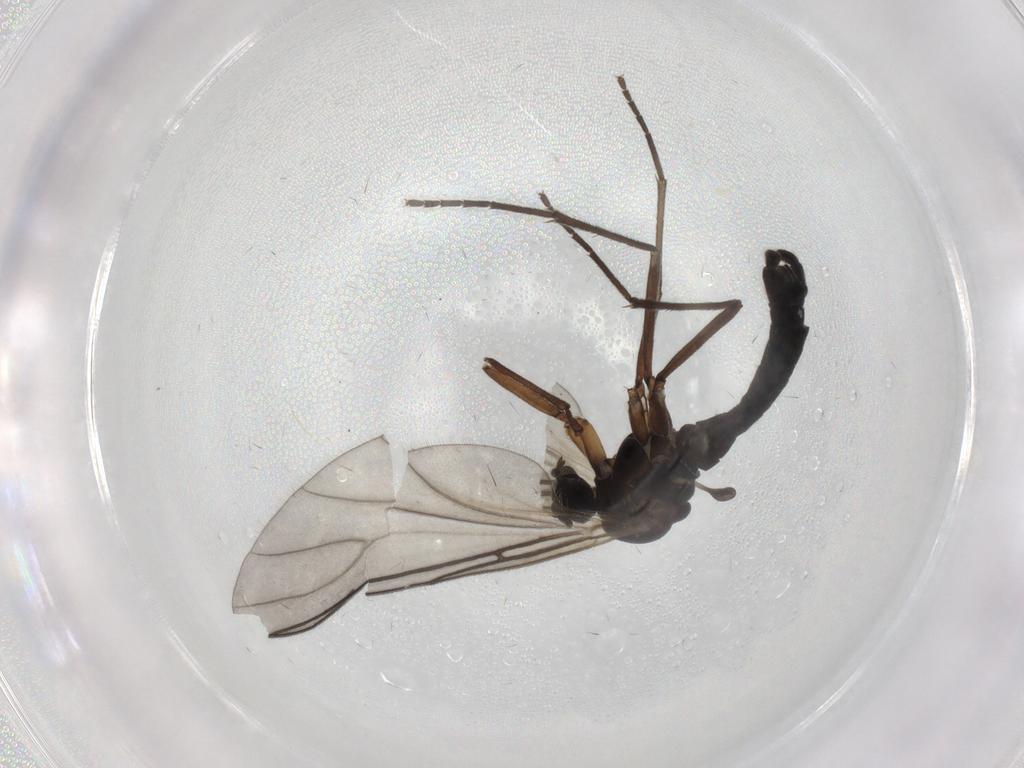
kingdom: Animalia
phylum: Arthropoda
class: Insecta
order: Diptera
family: Sciaridae
